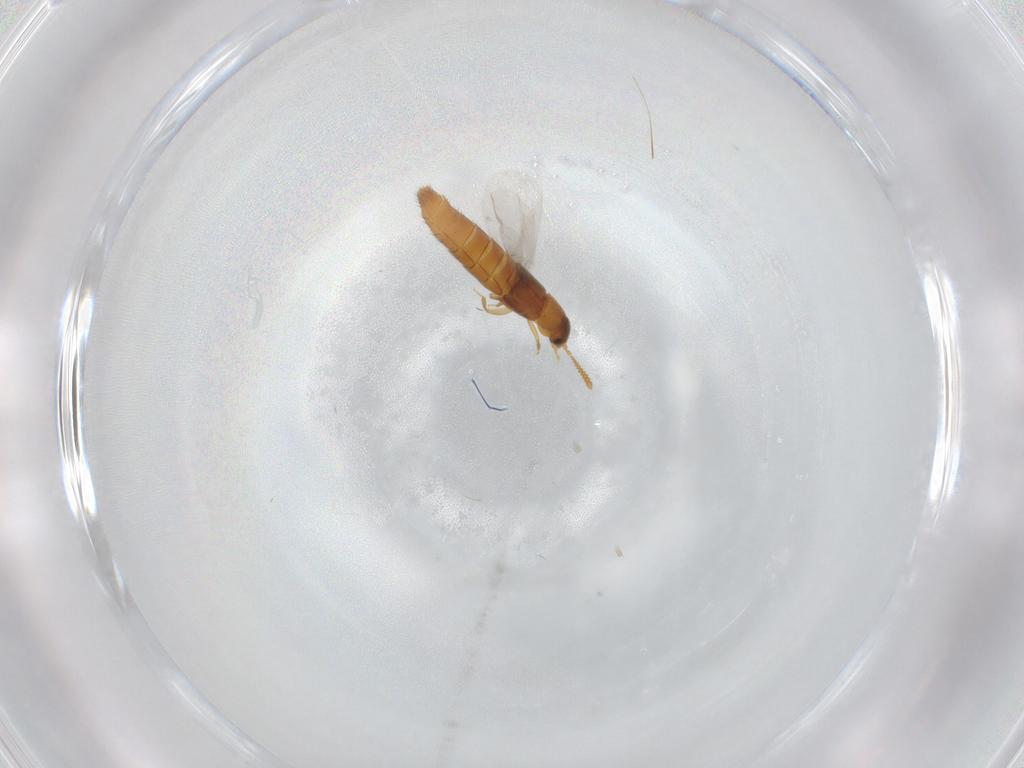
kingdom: Animalia
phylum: Arthropoda
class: Insecta
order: Coleoptera
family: Staphylinidae
